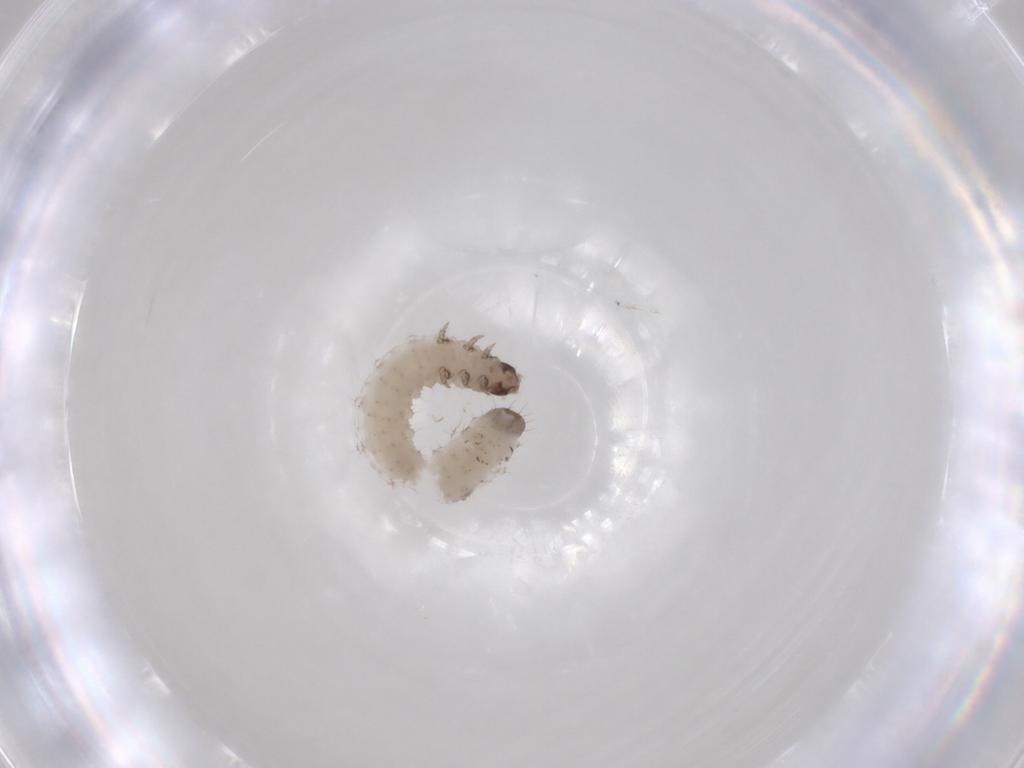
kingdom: Animalia
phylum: Arthropoda
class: Insecta
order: Coleoptera
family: Chrysomelidae
